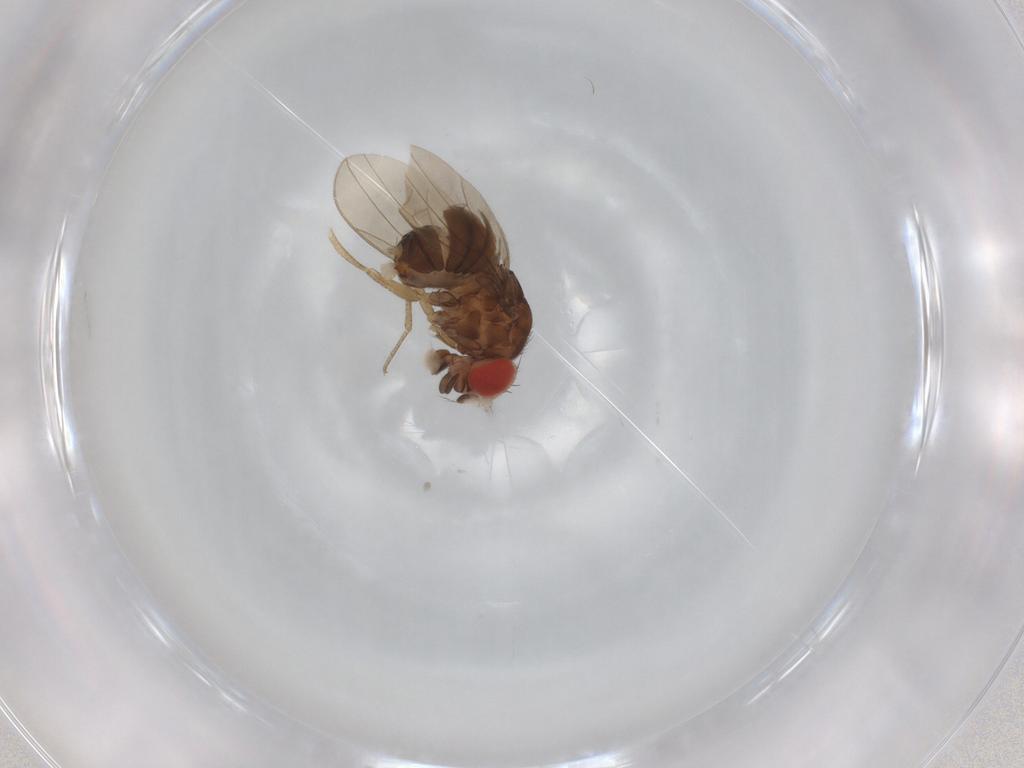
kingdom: Animalia
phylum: Arthropoda
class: Insecta
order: Diptera
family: Drosophilidae
